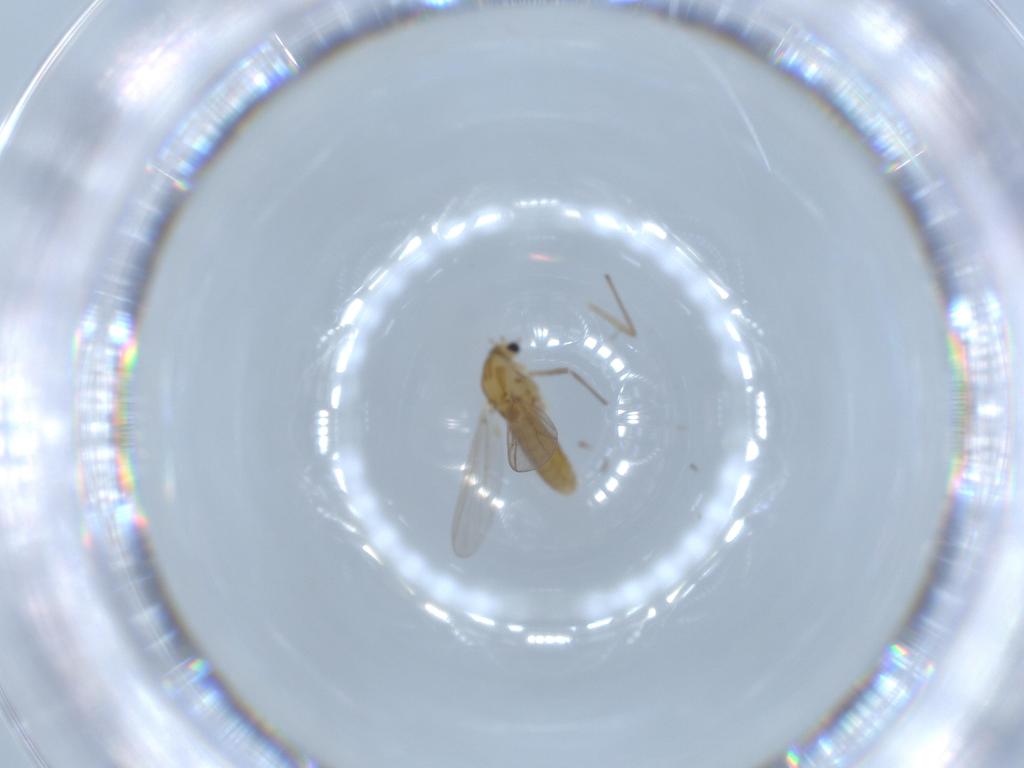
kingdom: Animalia
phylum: Arthropoda
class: Insecta
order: Diptera
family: Chironomidae
